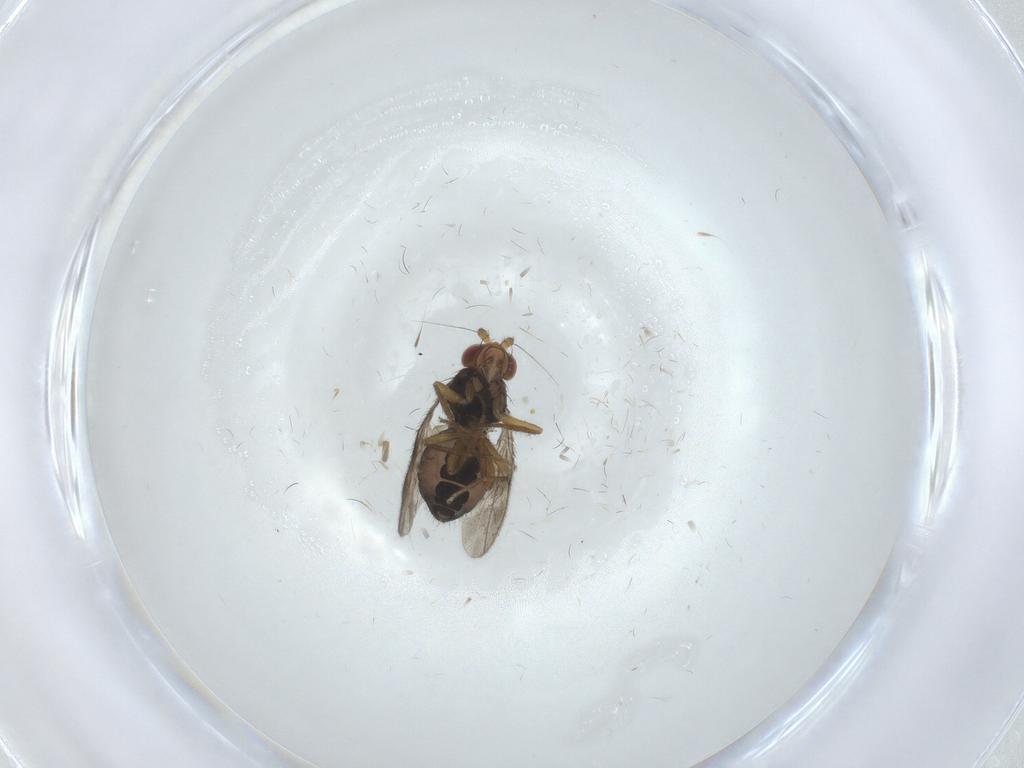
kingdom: Animalia
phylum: Arthropoda
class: Insecta
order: Diptera
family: Sphaeroceridae
